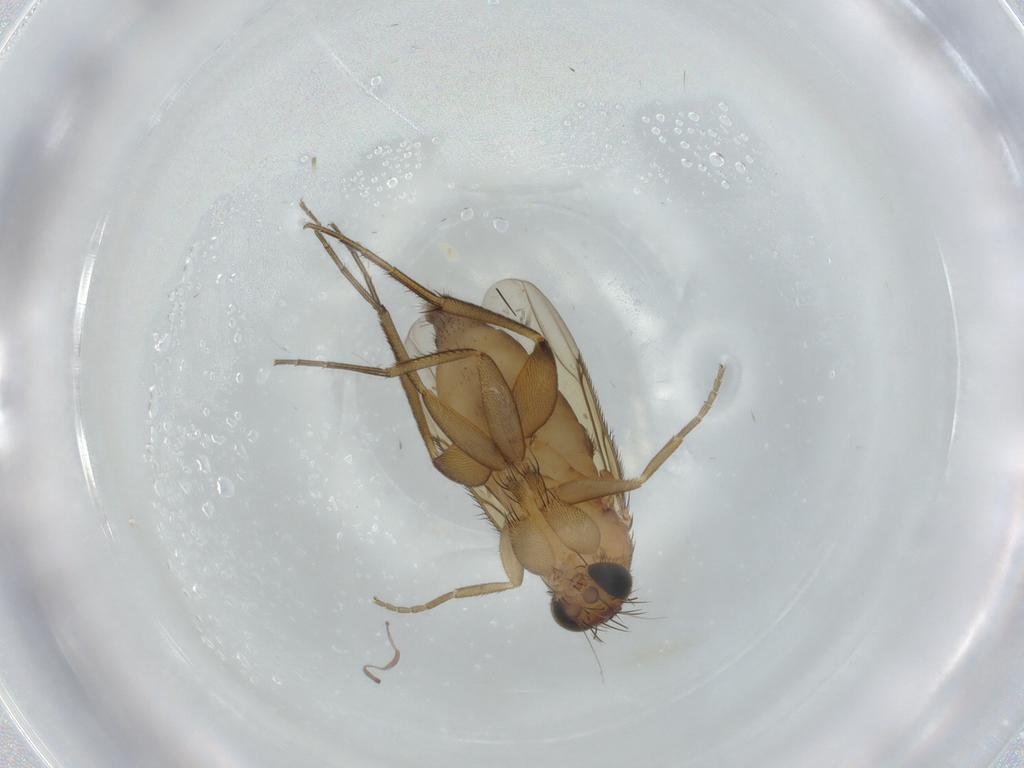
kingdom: Animalia
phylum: Arthropoda
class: Insecta
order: Diptera
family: Phoridae
